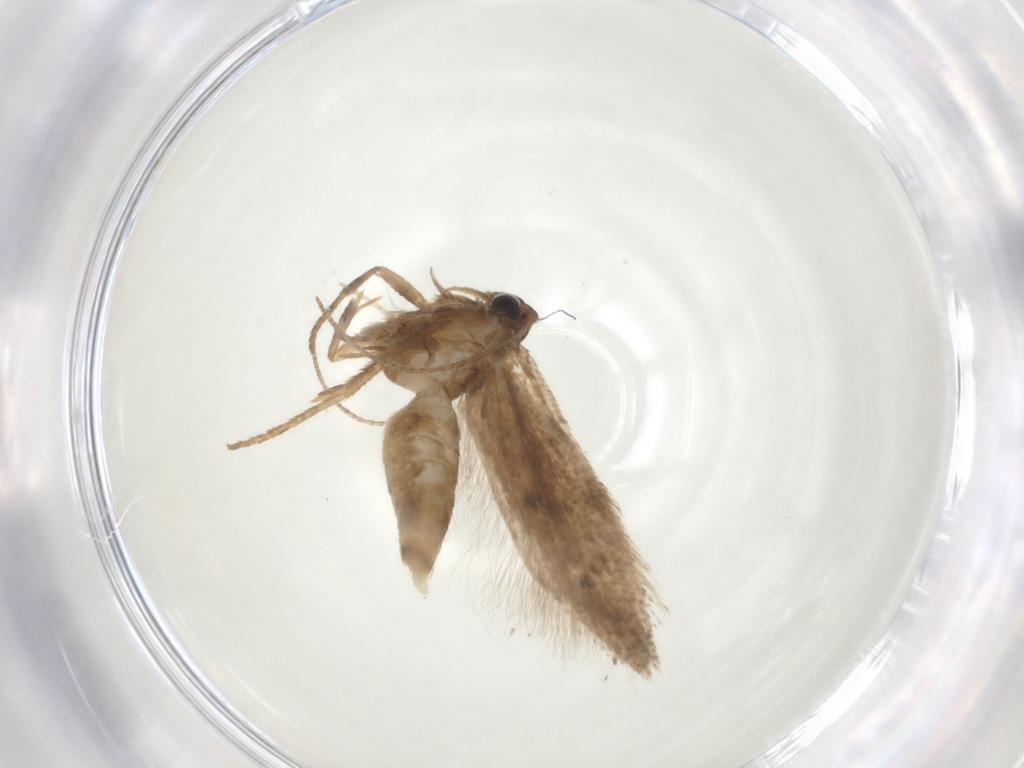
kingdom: Animalia
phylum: Arthropoda
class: Insecta
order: Lepidoptera
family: Gelechiidae
